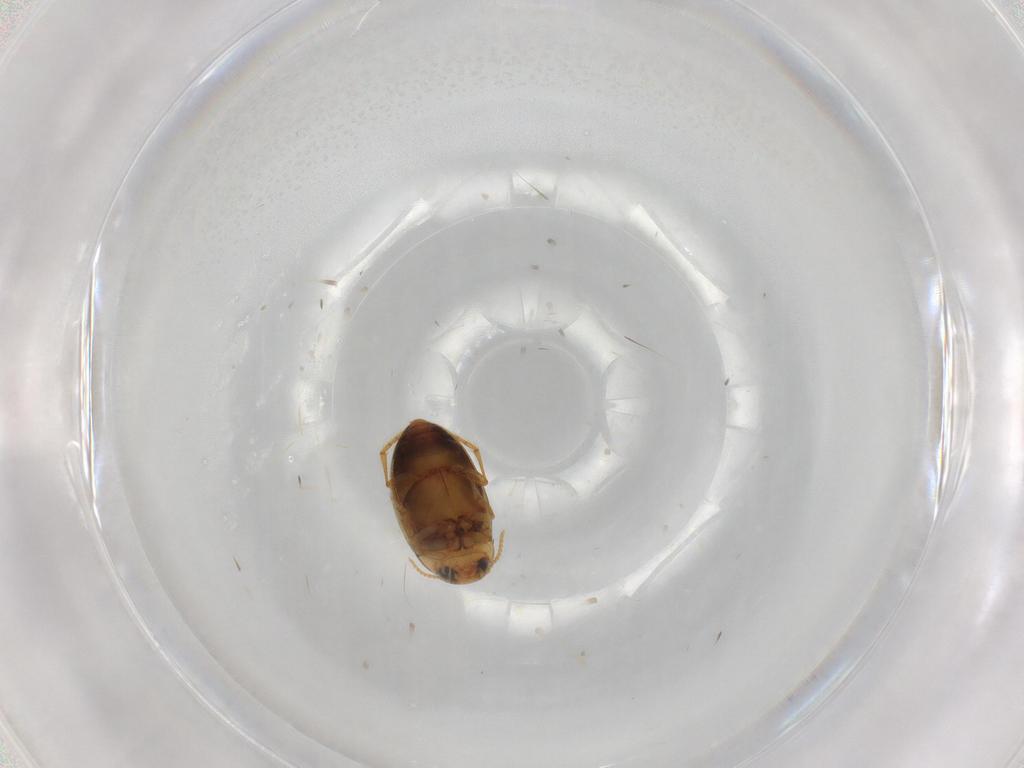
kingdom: Animalia
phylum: Arthropoda
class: Insecta
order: Coleoptera
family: Dytiscidae
